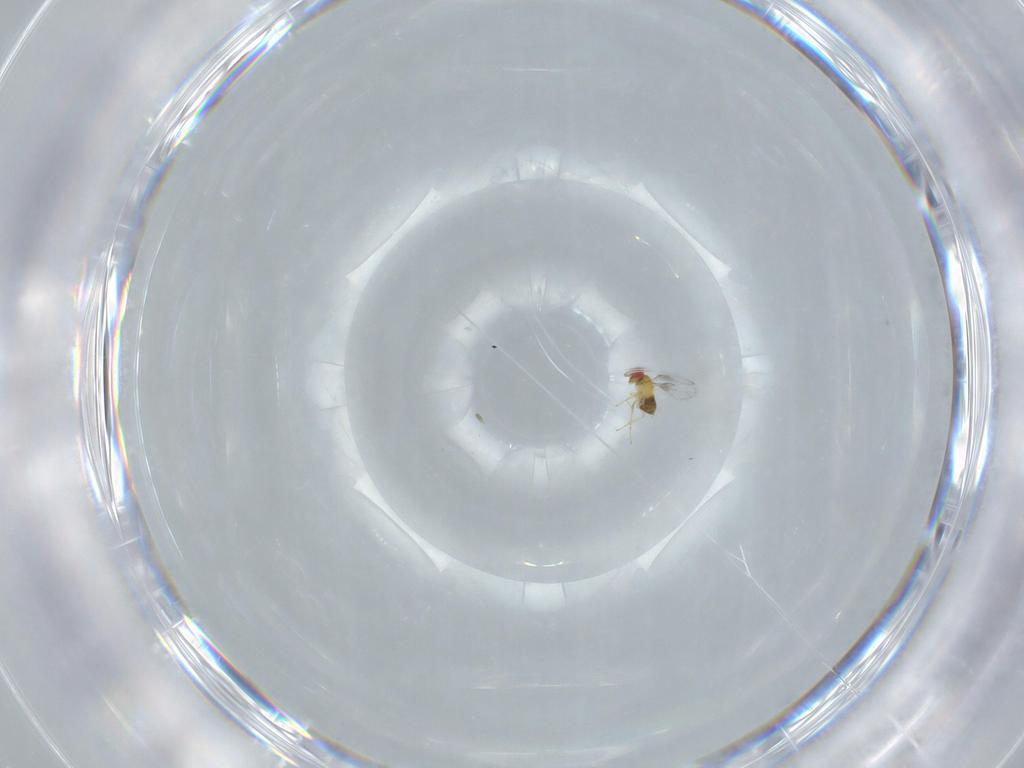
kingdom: Animalia
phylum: Arthropoda
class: Insecta
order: Hymenoptera
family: Trichogrammatidae
